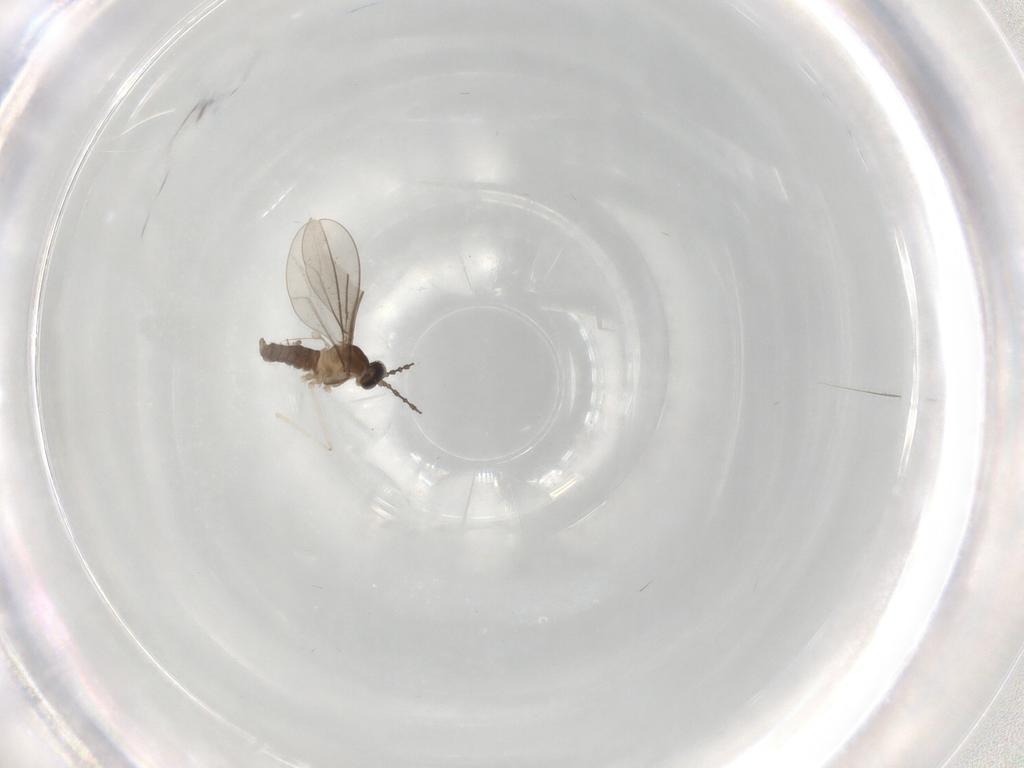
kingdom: Animalia
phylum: Arthropoda
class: Insecta
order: Diptera
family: Cecidomyiidae
